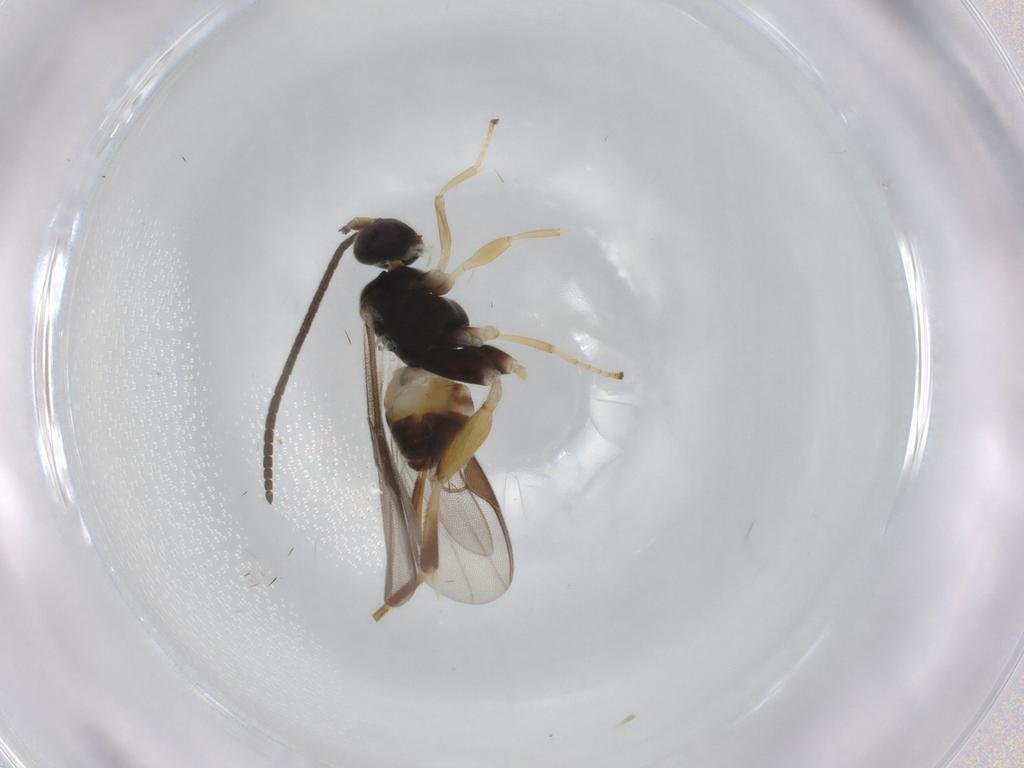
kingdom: Animalia
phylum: Arthropoda
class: Insecta
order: Hymenoptera
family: Braconidae
